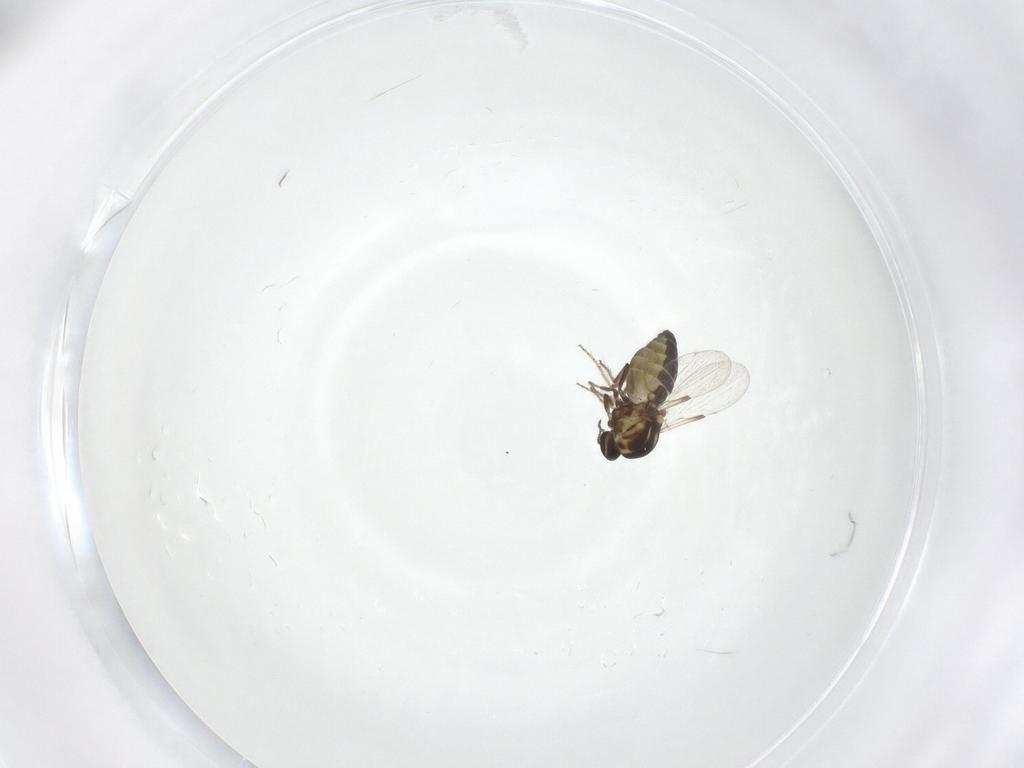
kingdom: Animalia
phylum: Arthropoda
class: Insecta
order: Diptera
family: Ceratopogonidae
